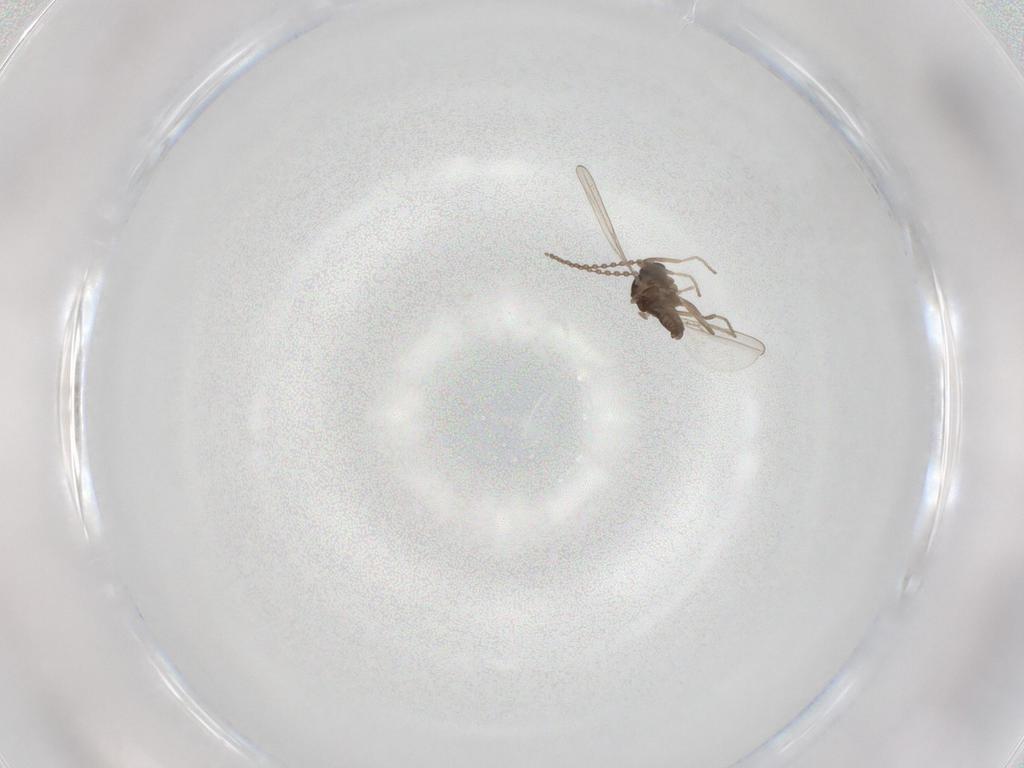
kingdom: Animalia
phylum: Arthropoda
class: Insecta
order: Diptera
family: Cecidomyiidae
